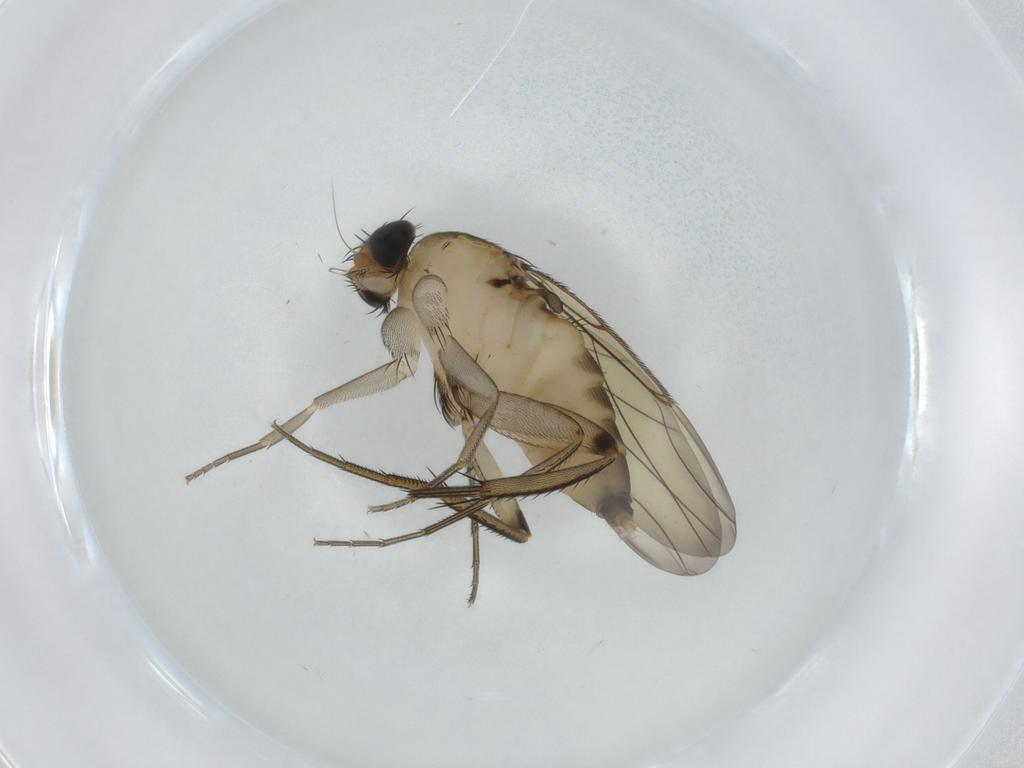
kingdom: Animalia
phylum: Arthropoda
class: Insecta
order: Diptera
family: Phoridae
